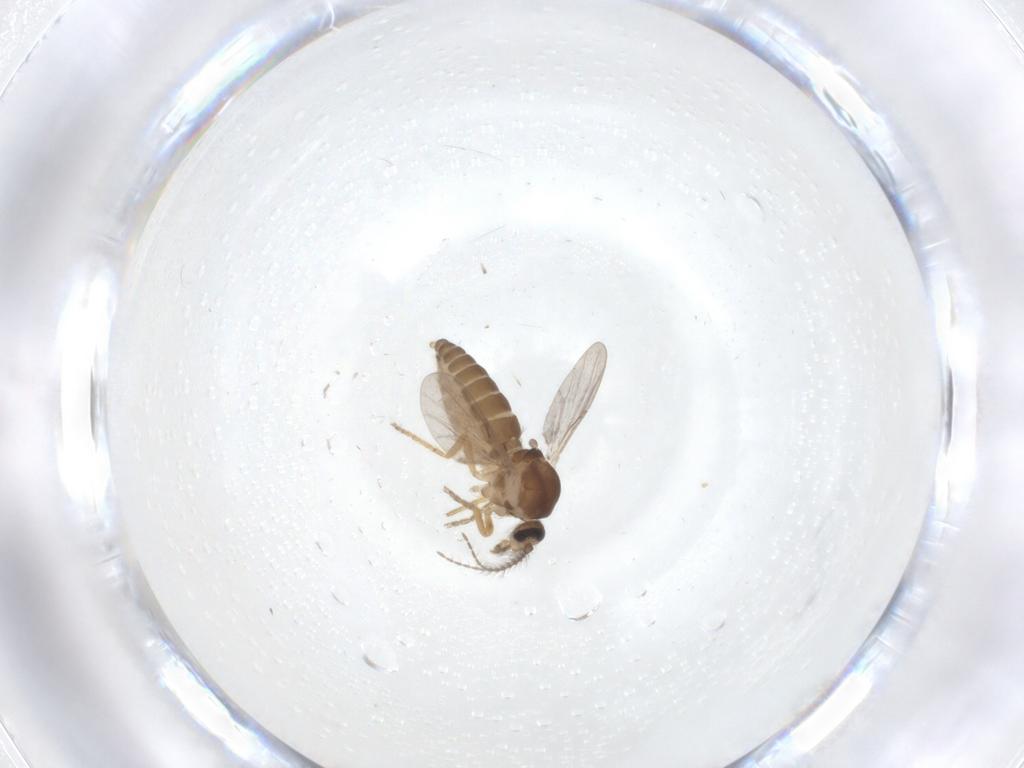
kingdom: Animalia
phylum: Arthropoda
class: Insecta
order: Diptera
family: Ceratopogonidae
